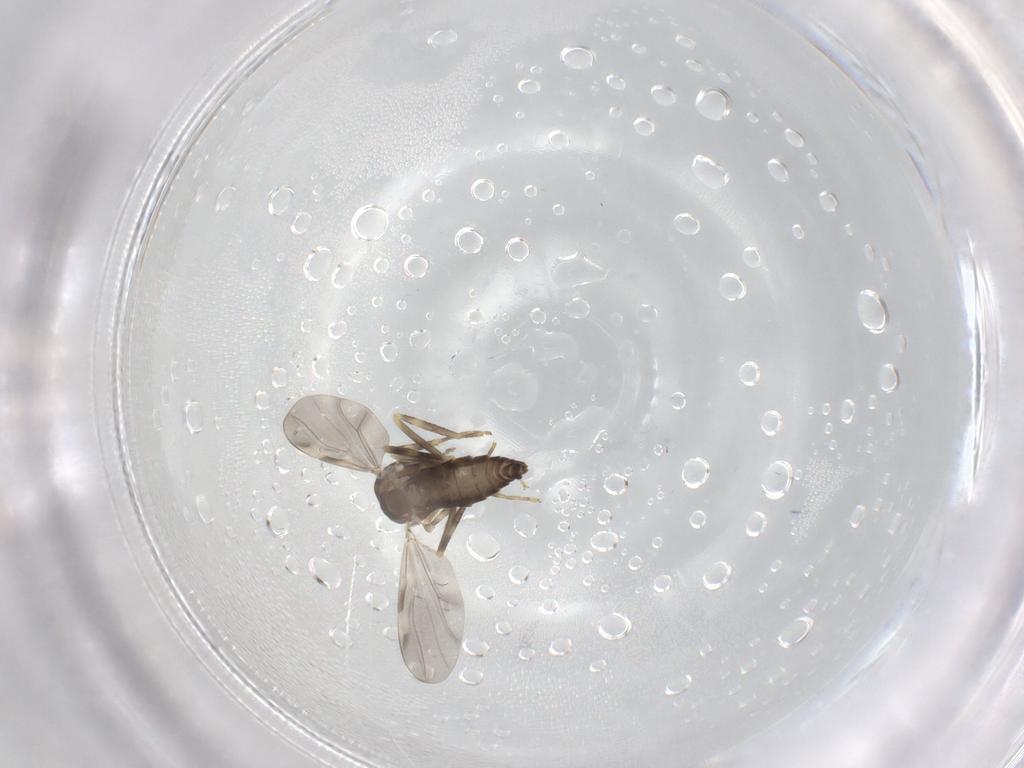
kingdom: Animalia
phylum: Arthropoda
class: Insecta
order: Diptera
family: Ceratopogonidae
